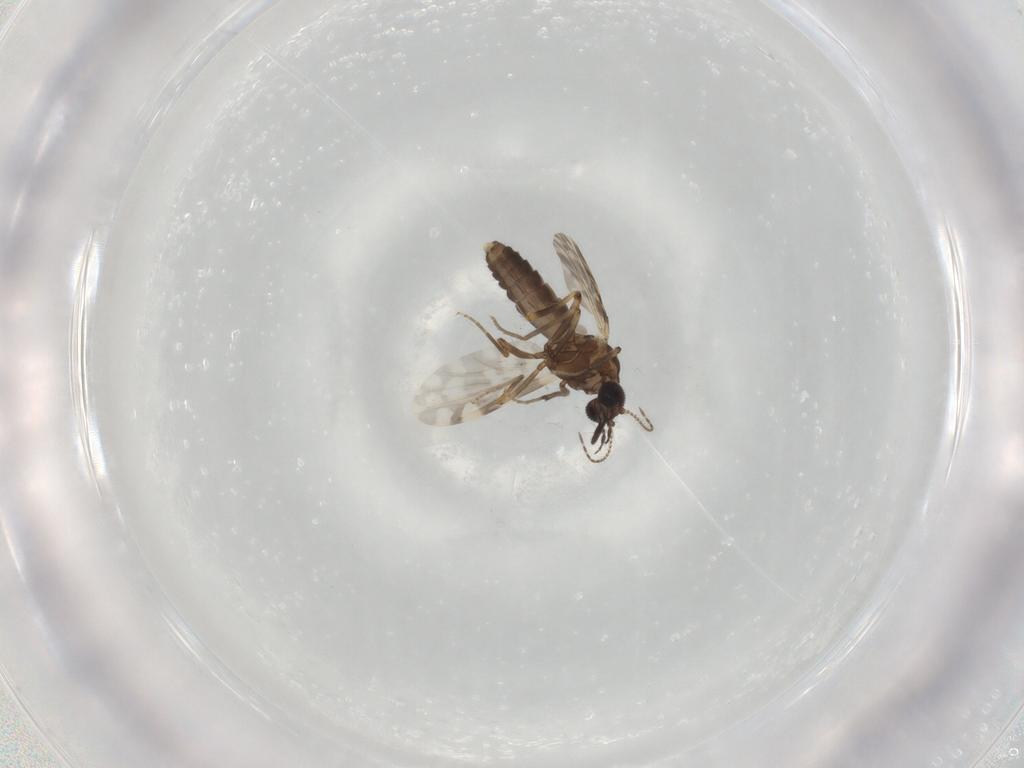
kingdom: Animalia
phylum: Arthropoda
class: Insecta
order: Diptera
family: Ceratopogonidae
